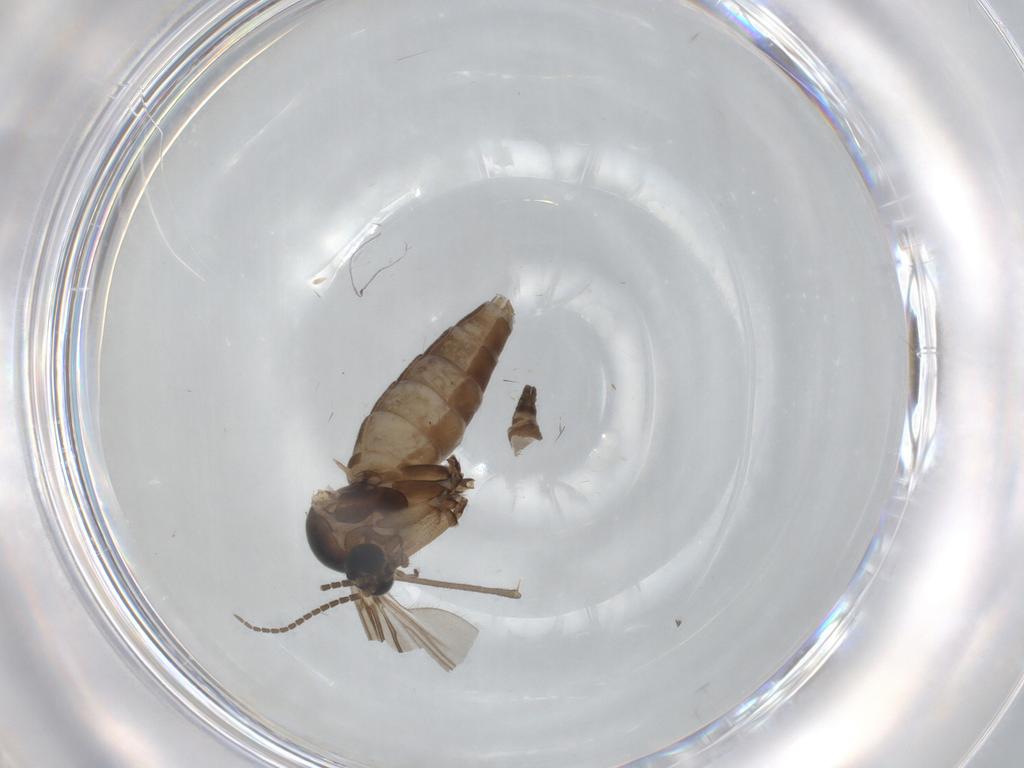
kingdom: Animalia
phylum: Arthropoda
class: Insecta
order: Diptera
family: Sciaridae
